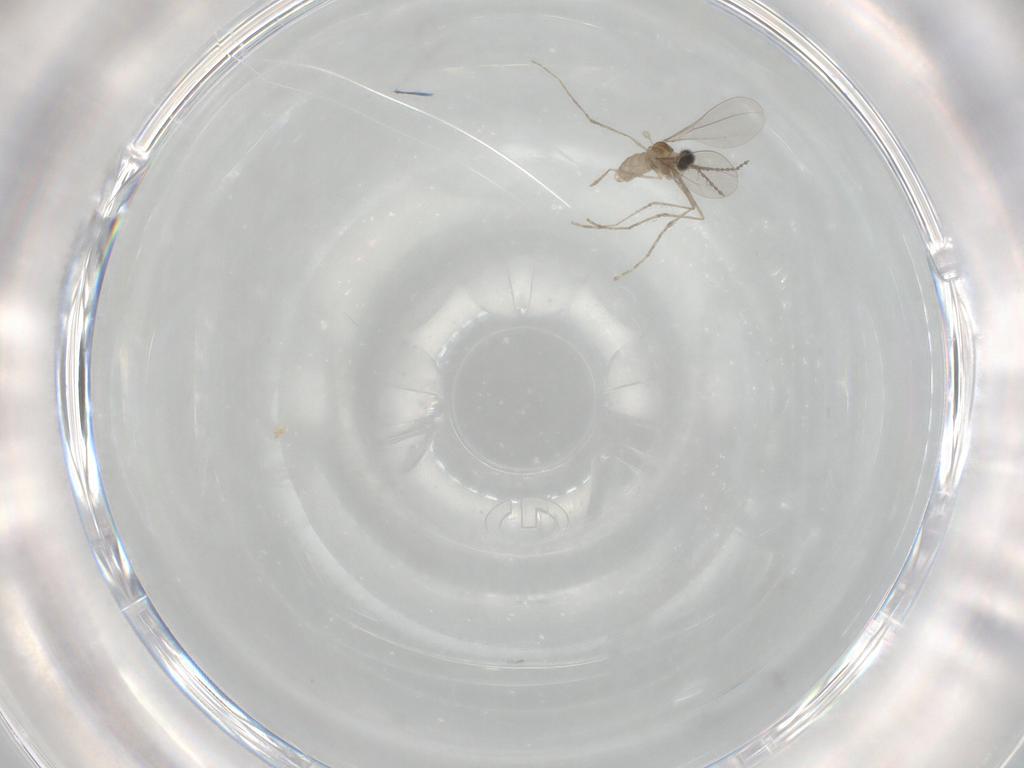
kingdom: Animalia
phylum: Arthropoda
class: Insecta
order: Diptera
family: Cecidomyiidae
